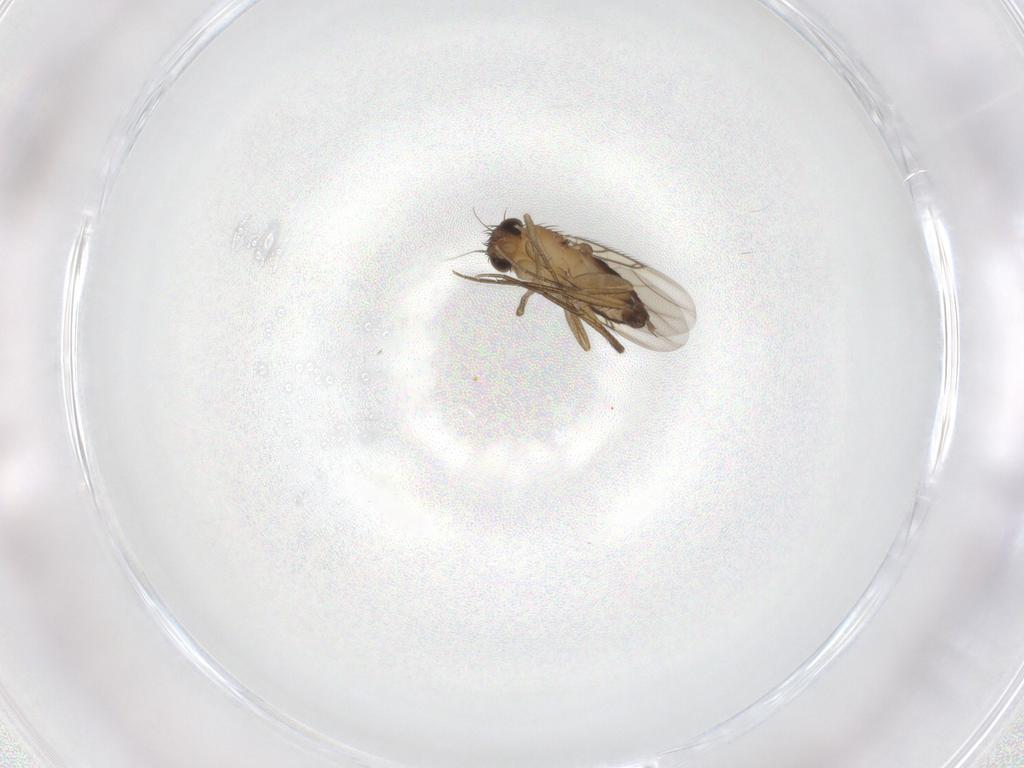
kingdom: Animalia
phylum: Arthropoda
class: Insecta
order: Diptera
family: Phoridae
